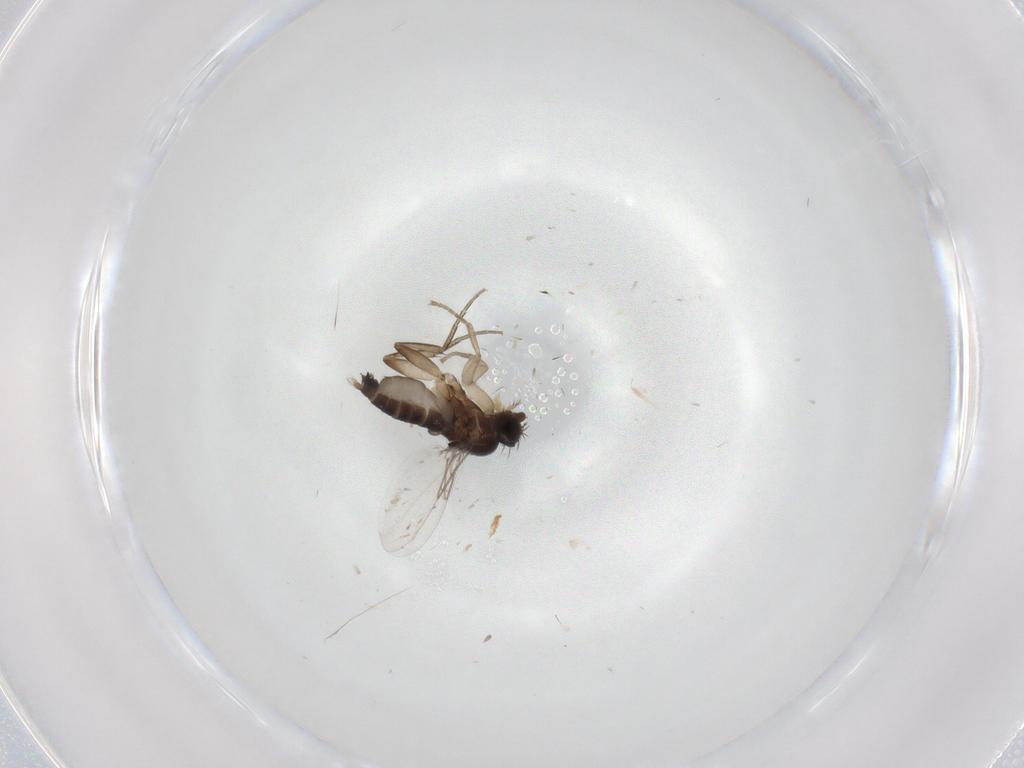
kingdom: Animalia
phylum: Arthropoda
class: Insecta
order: Diptera
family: Phoridae
